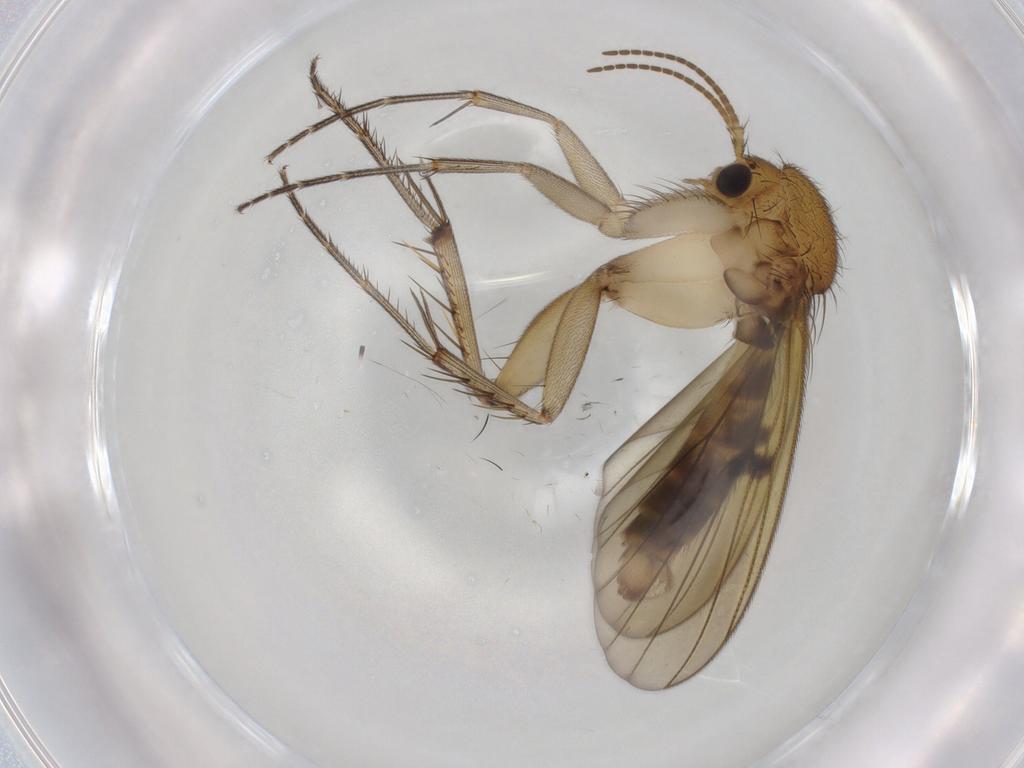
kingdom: Animalia
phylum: Arthropoda
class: Insecta
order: Diptera
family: Mycetophilidae
